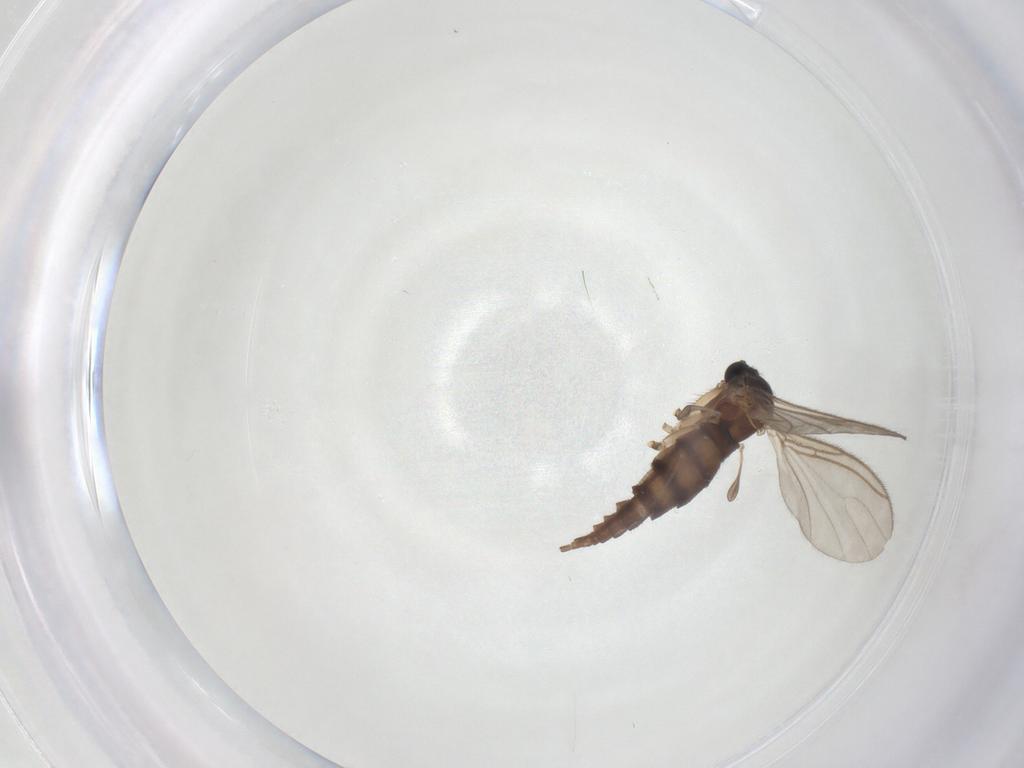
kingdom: Animalia
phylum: Arthropoda
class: Insecta
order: Diptera
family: Sciaridae
